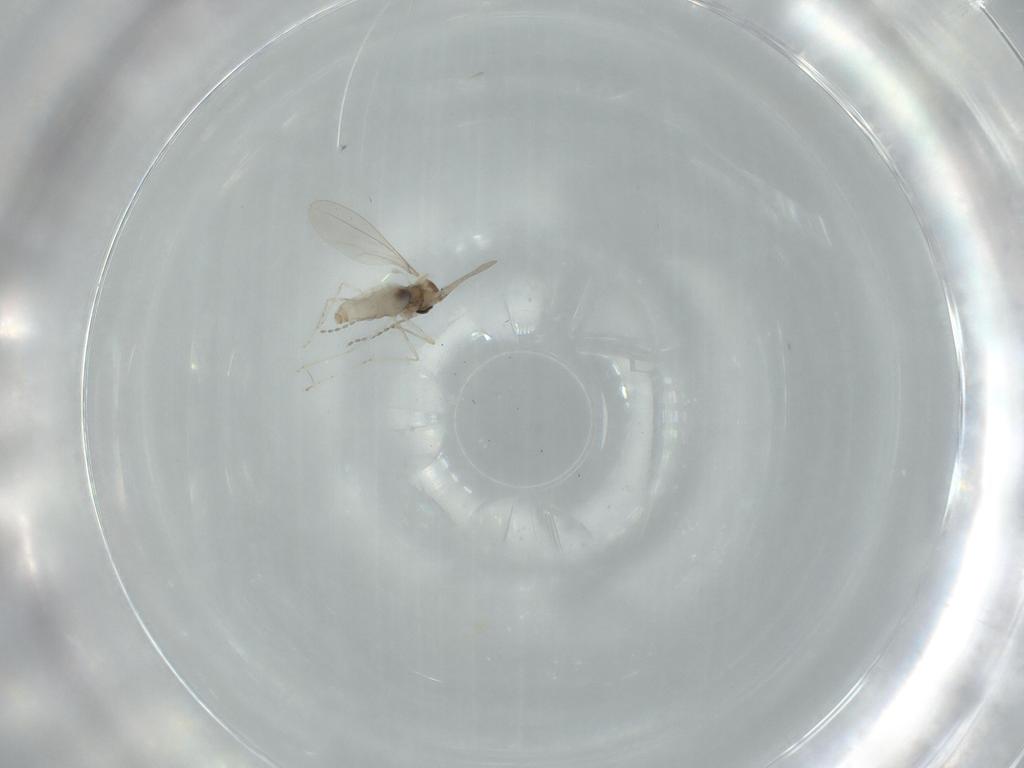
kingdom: Animalia
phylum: Arthropoda
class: Insecta
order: Diptera
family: Cecidomyiidae
